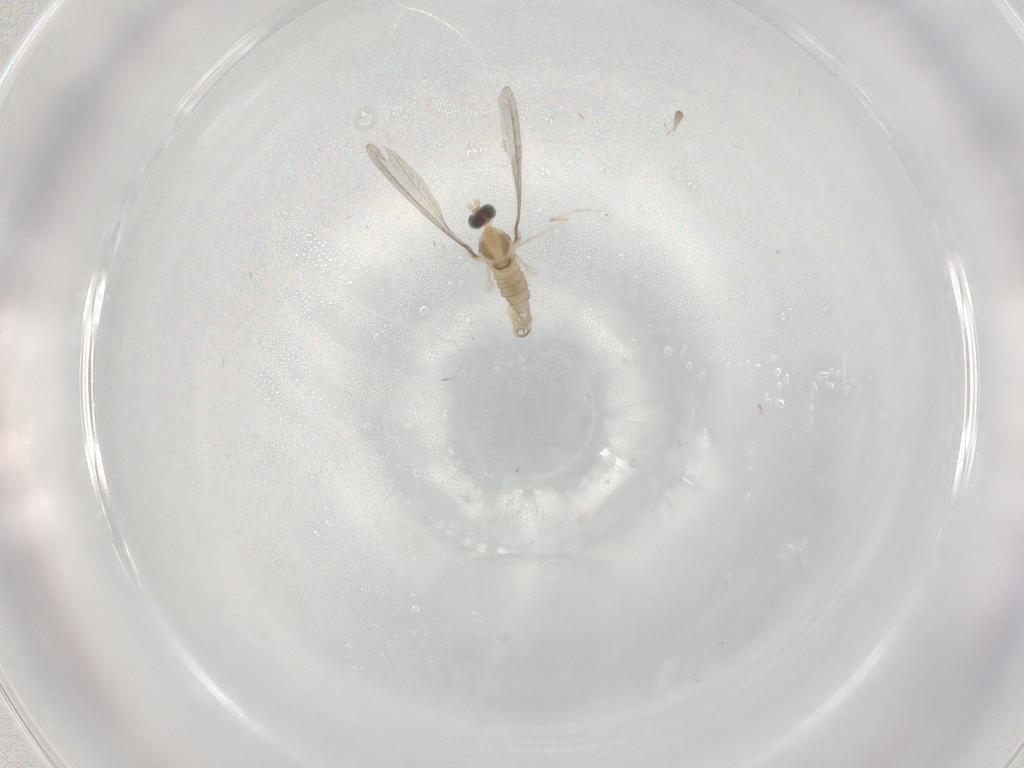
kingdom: Animalia
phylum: Arthropoda
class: Insecta
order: Diptera
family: Cecidomyiidae
